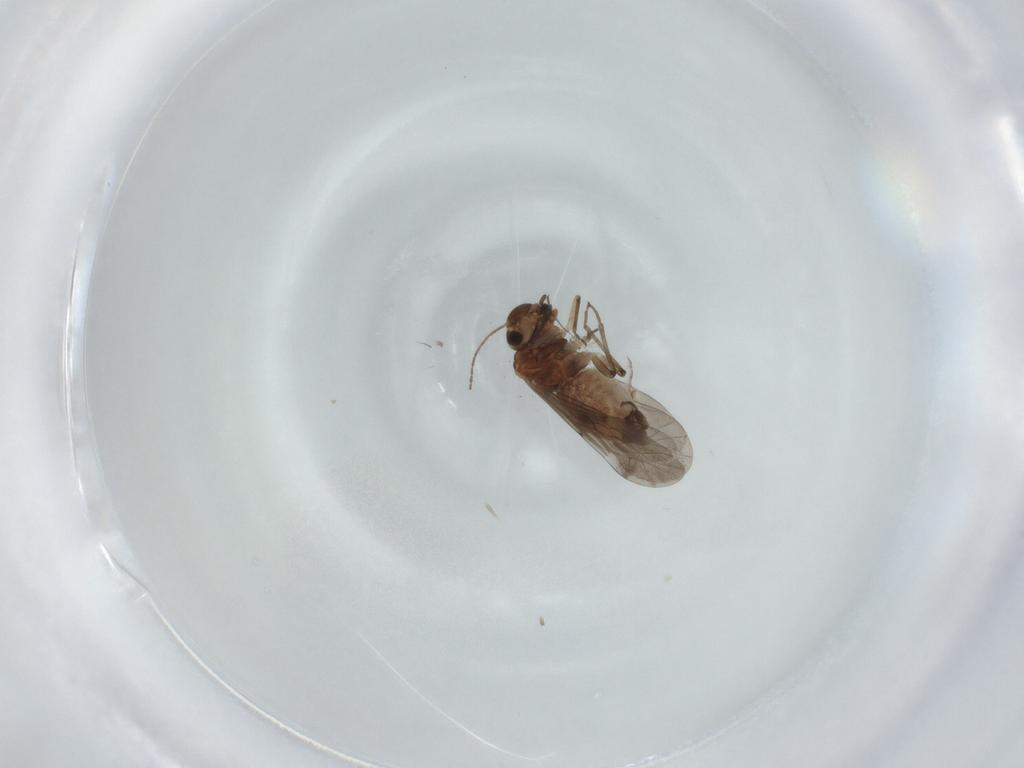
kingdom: Animalia
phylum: Arthropoda
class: Insecta
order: Psocodea
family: Lachesillidae
